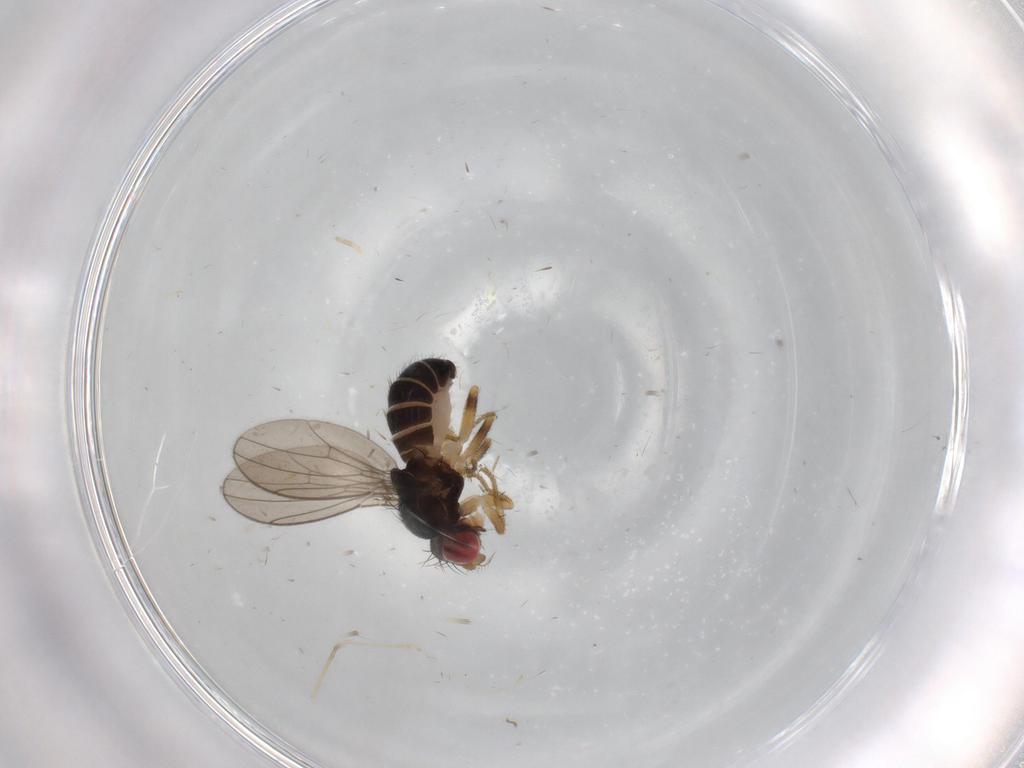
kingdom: Animalia
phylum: Arthropoda
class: Insecta
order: Diptera
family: Drosophilidae
